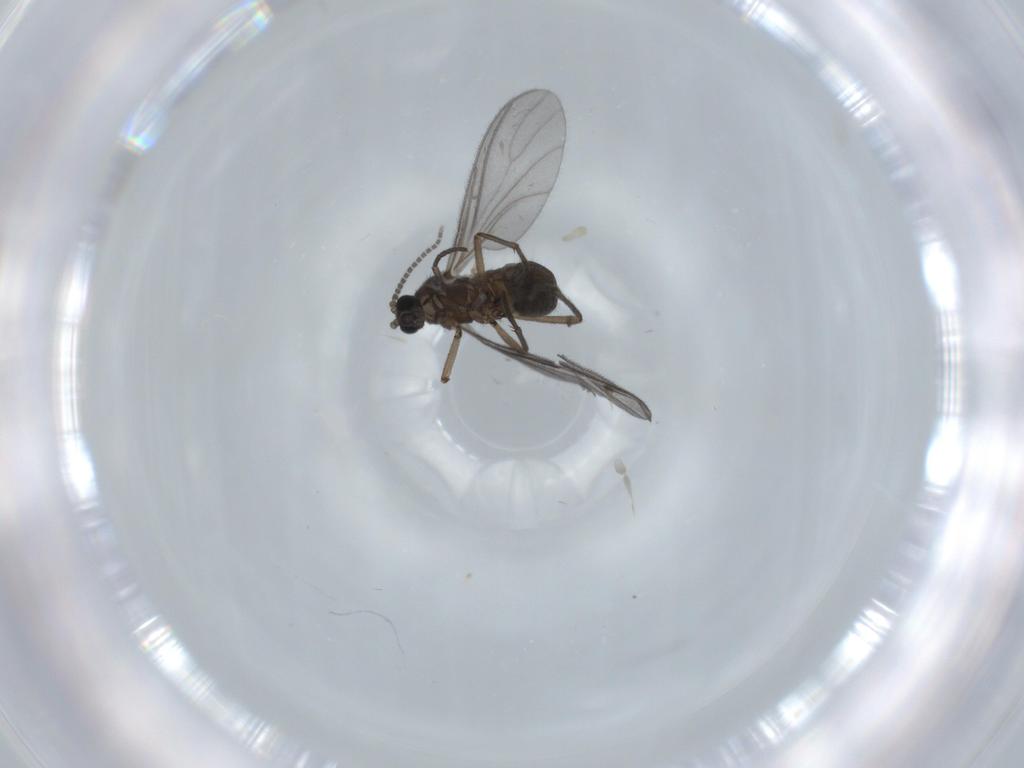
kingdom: Animalia
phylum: Arthropoda
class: Insecta
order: Diptera
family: Sciaridae
